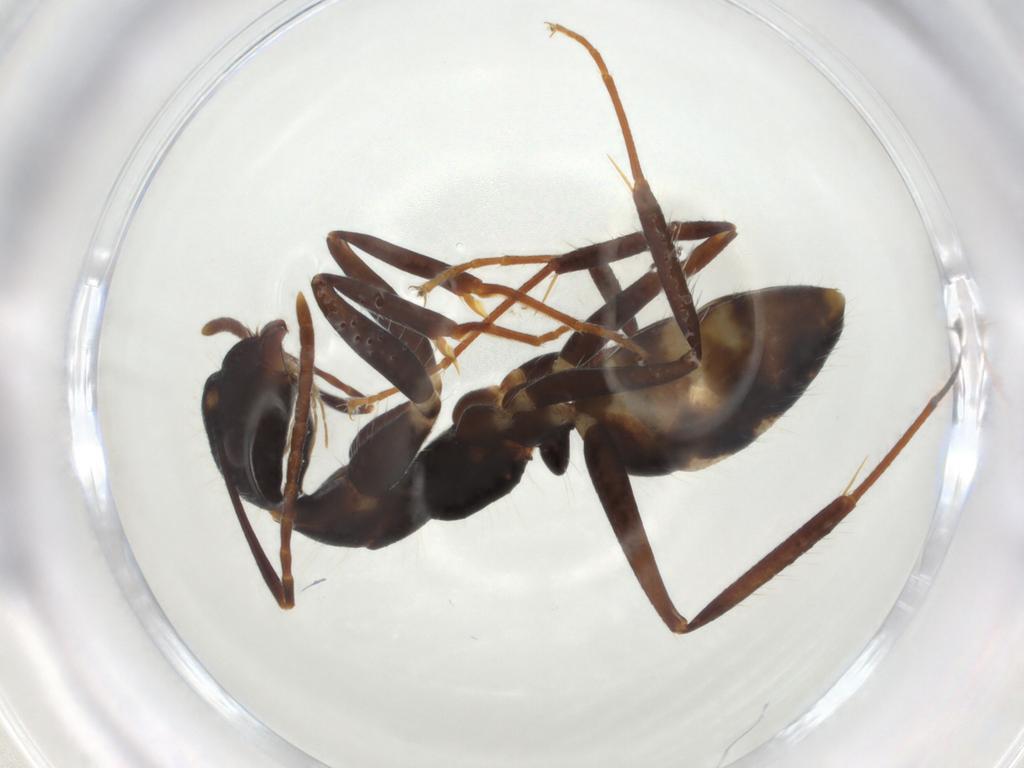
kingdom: Animalia
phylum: Arthropoda
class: Insecta
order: Hymenoptera
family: Formicidae
